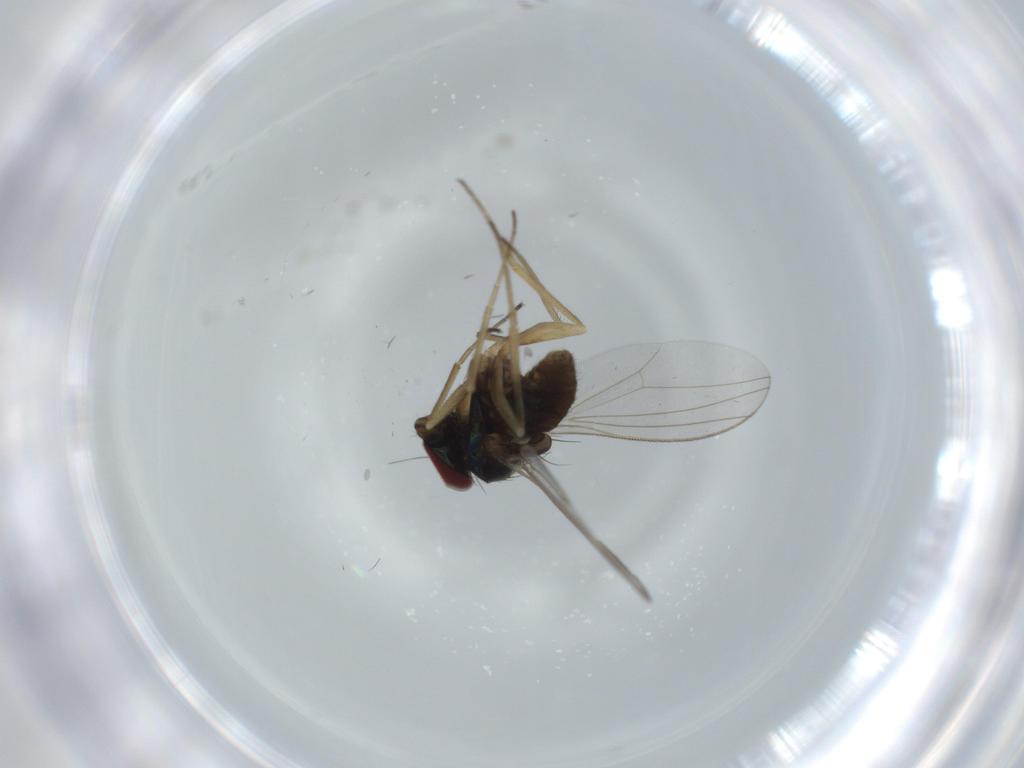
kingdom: Animalia
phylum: Arthropoda
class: Insecta
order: Diptera
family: Dolichopodidae
